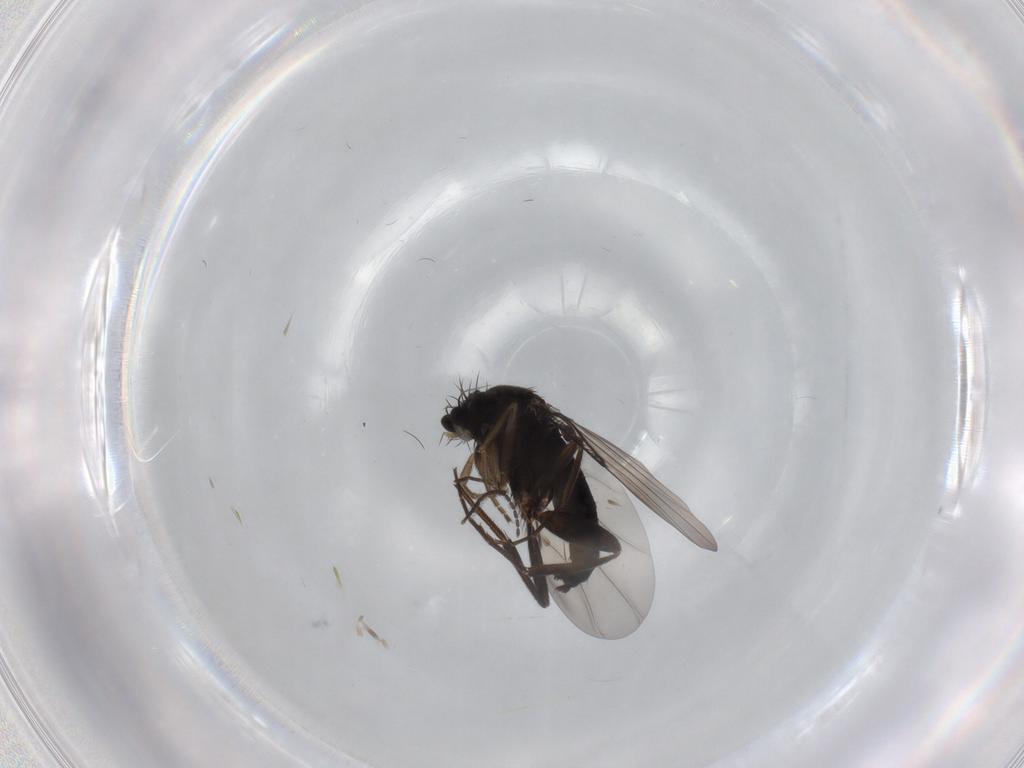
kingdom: Animalia
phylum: Arthropoda
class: Insecta
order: Diptera
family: Phoridae
